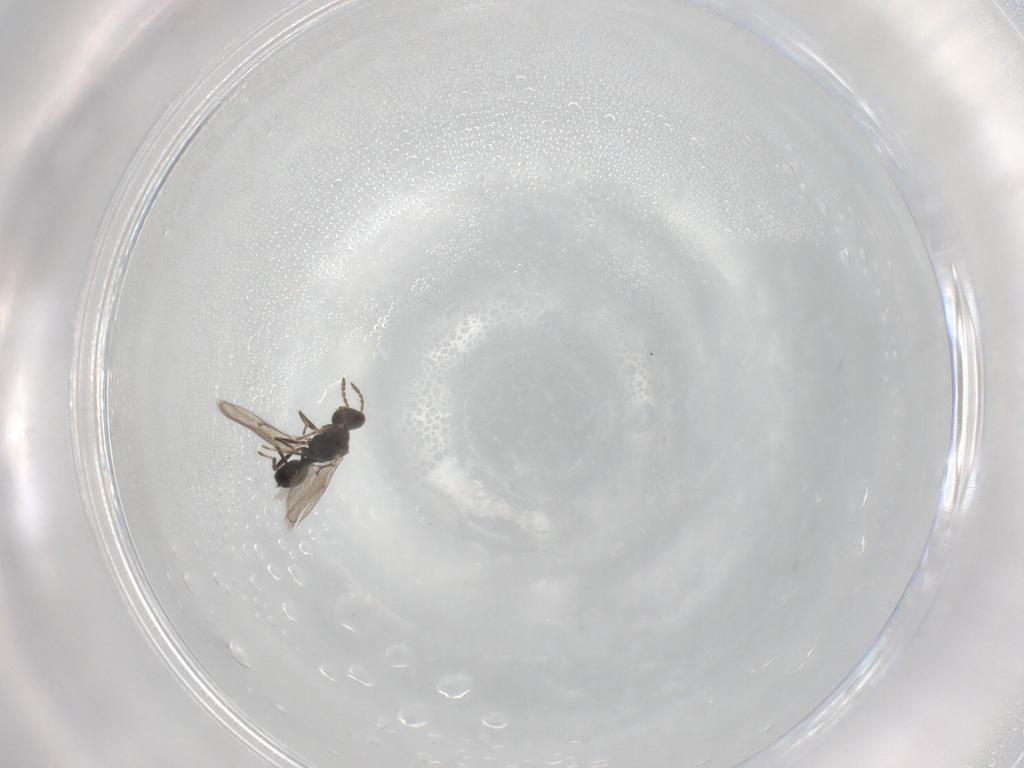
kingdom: Animalia
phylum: Arthropoda
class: Insecta
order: Hymenoptera
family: Eulophidae
